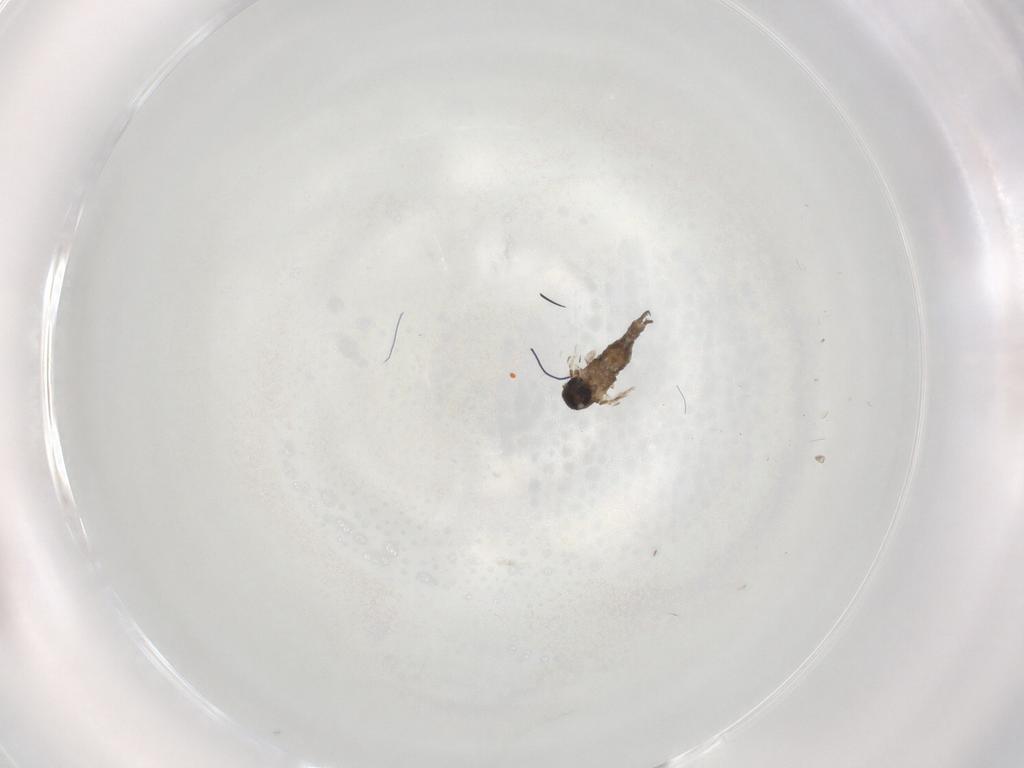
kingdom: Animalia
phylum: Arthropoda
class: Insecta
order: Diptera
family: Psychodidae
